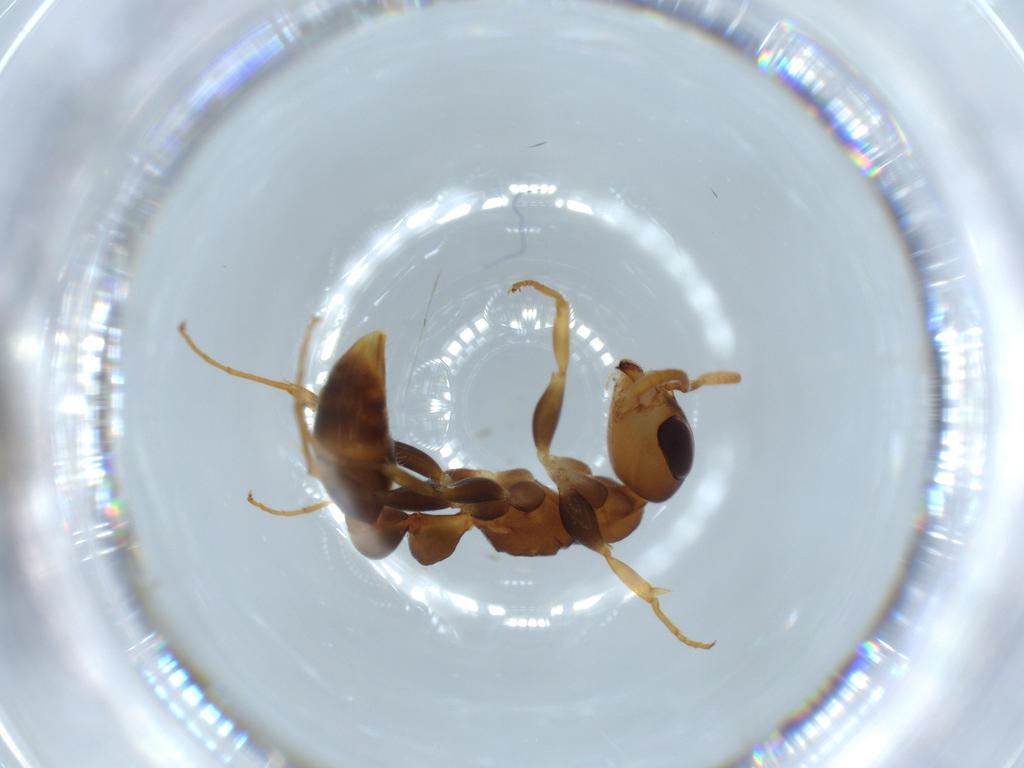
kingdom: Animalia
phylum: Arthropoda
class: Insecta
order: Hymenoptera
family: Formicidae
